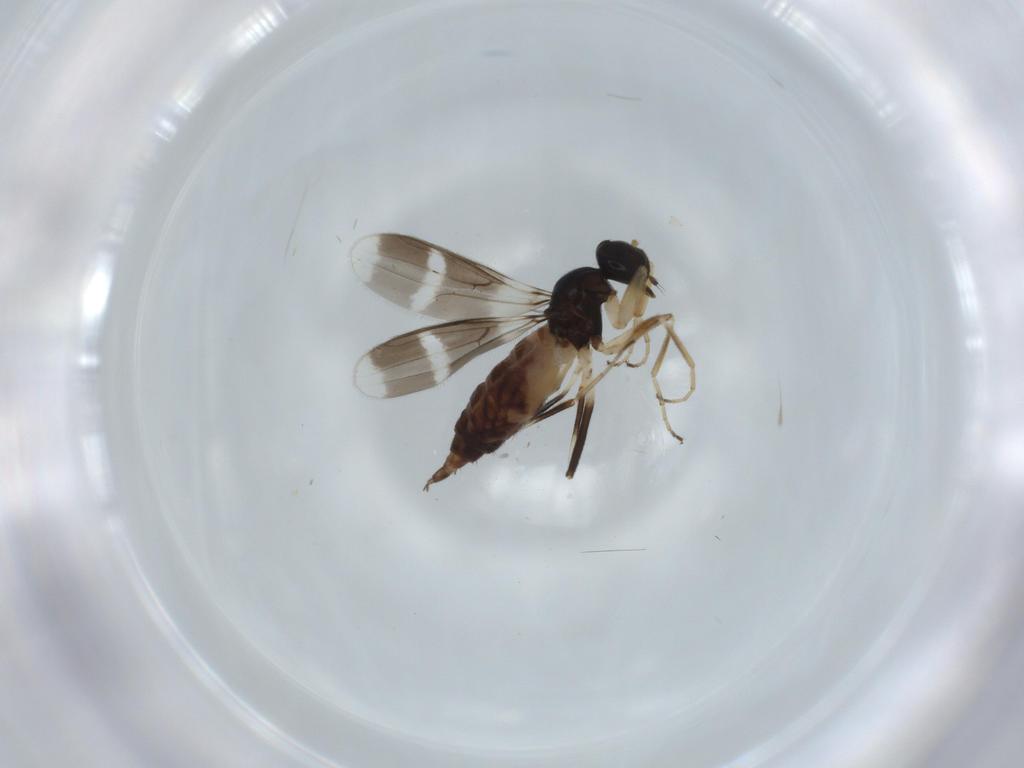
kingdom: Animalia
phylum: Arthropoda
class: Insecta
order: Diptera
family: Hybotidae
